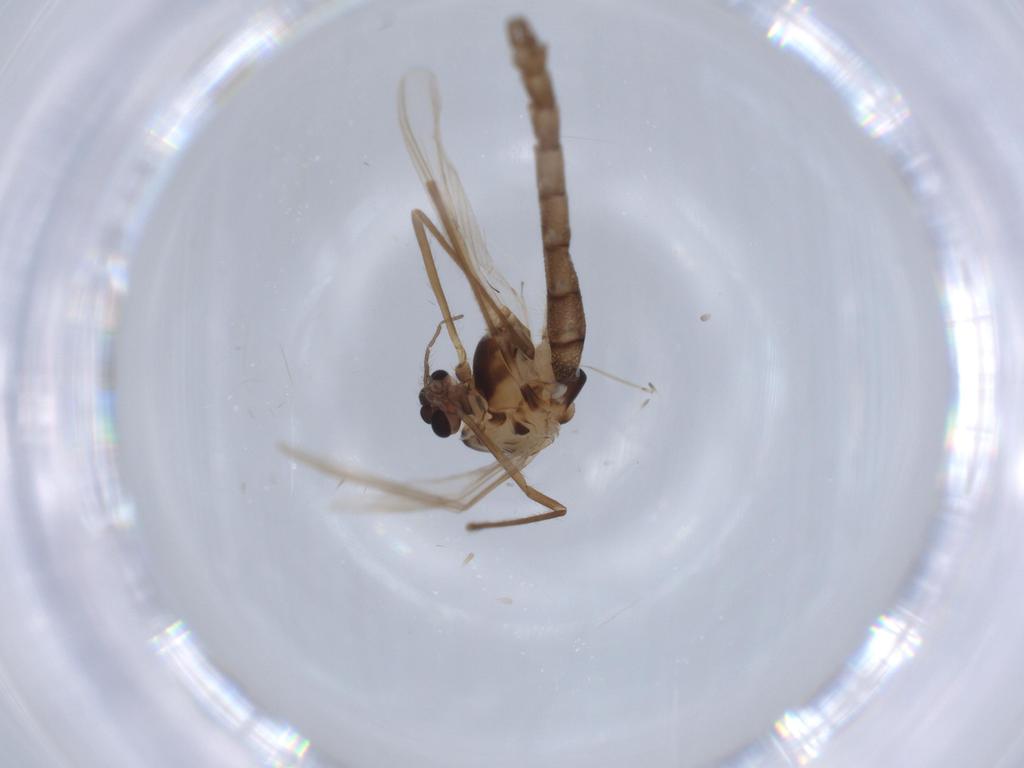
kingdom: Animalia
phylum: Arthropoda
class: Insecta
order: Diptera
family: Chironomidae
